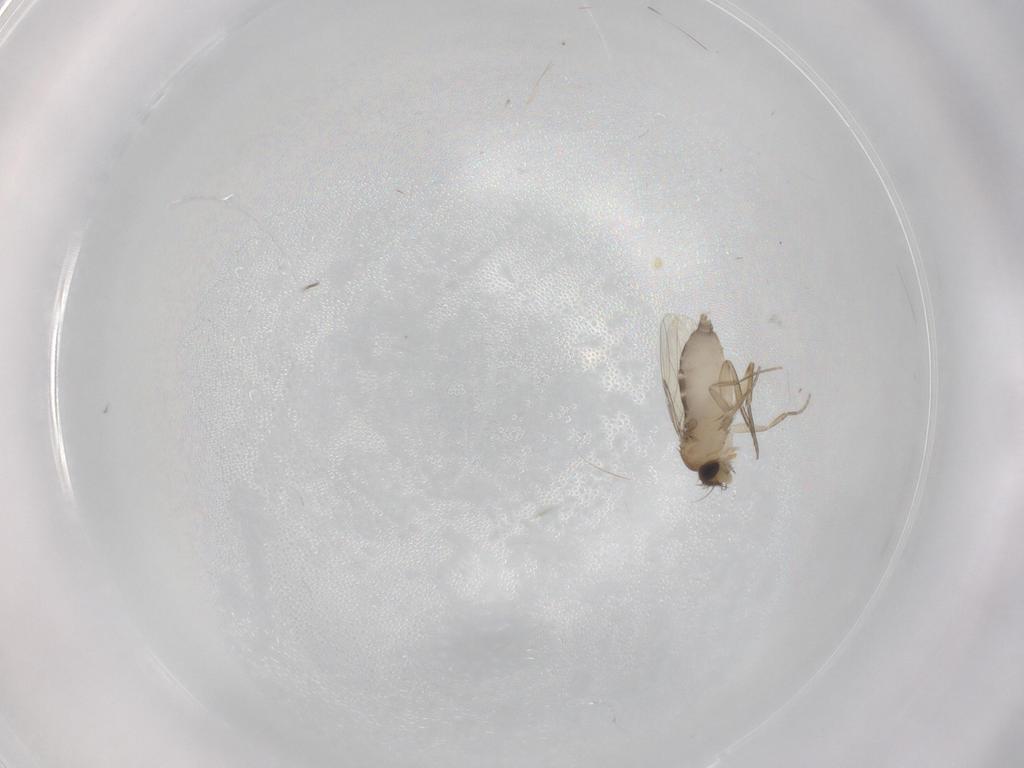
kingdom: Animalia
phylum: Arthropoda
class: Insecta
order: Diptera
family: Phoridae
